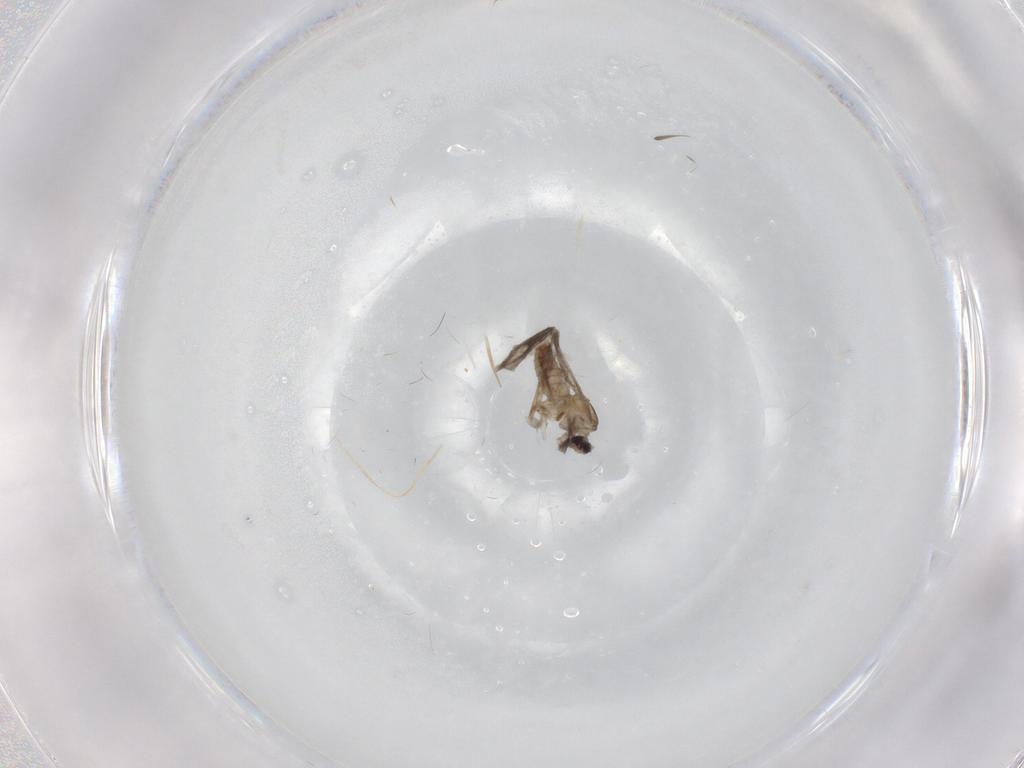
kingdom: Animalia
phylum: Arthropoda
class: Insecta
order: Diptera
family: Cecidomyiidae
